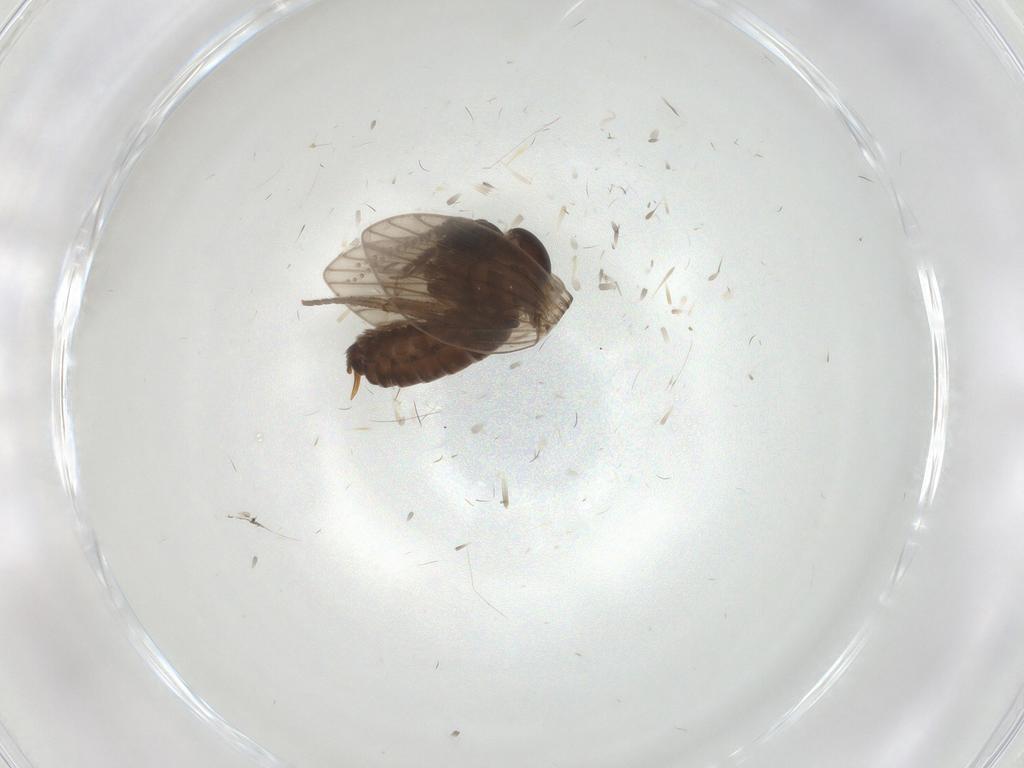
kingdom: Animalia
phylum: Arthropoda
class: Insecta
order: Diptera
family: Psychodidae
